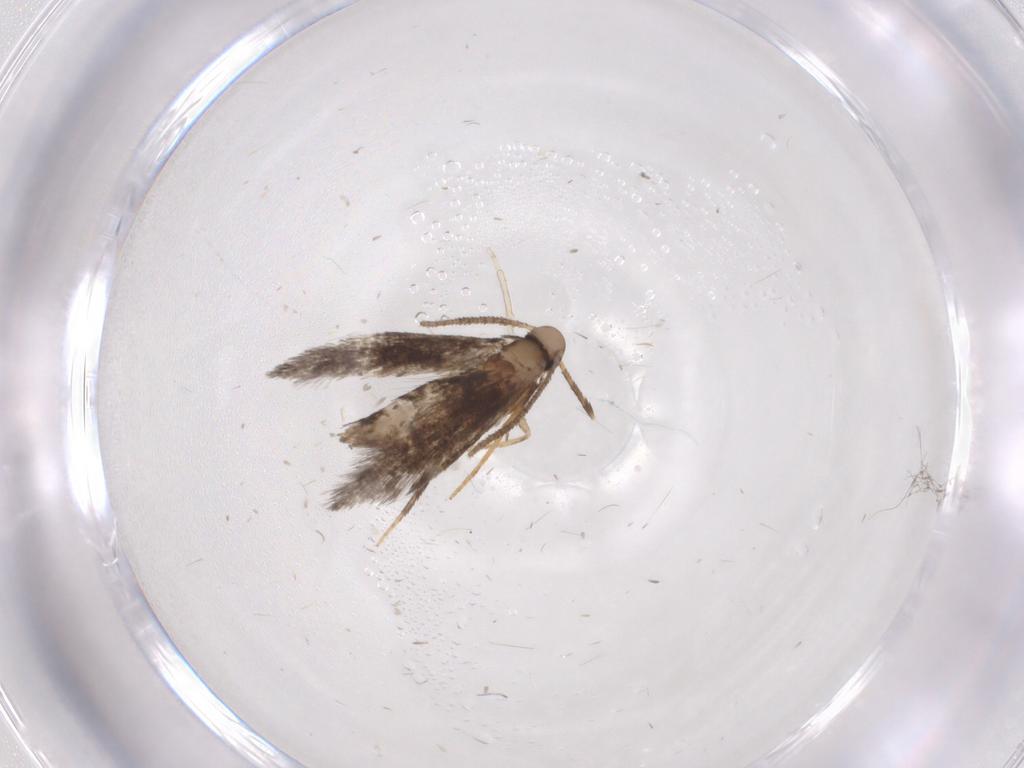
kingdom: Animalia
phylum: Arthropoda
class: Insecta
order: Lepidoptera
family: Heliozelidae
